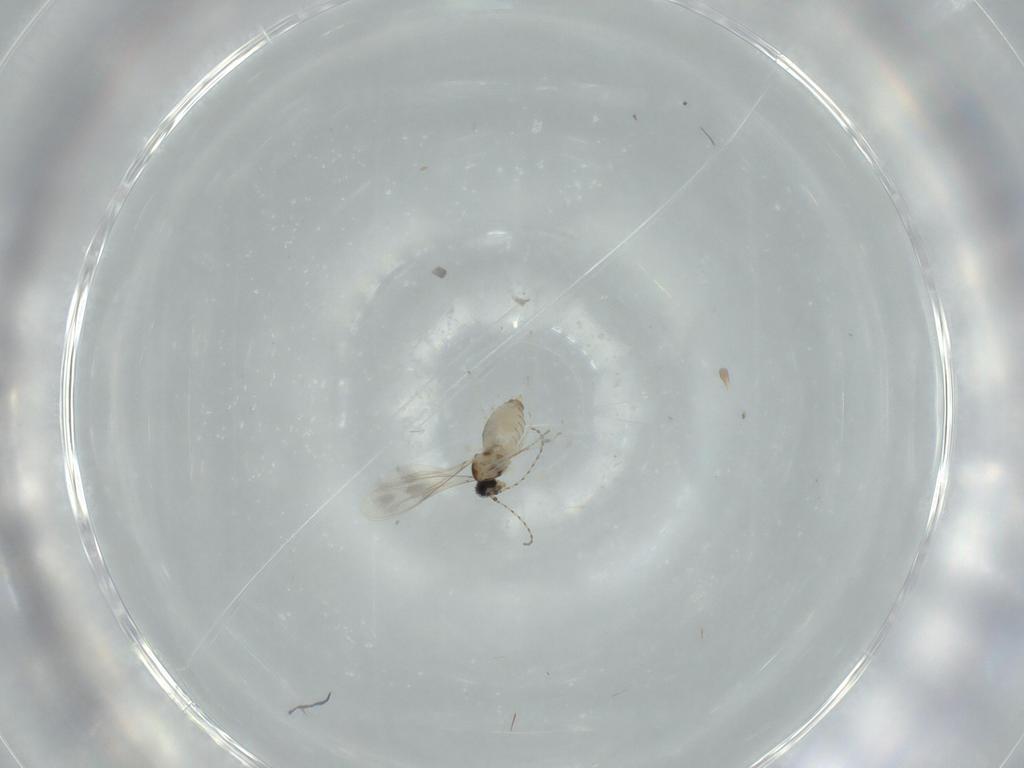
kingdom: Animalia
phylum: Arthropoda
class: Insecta
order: Diptera
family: Cecidomyiidae
